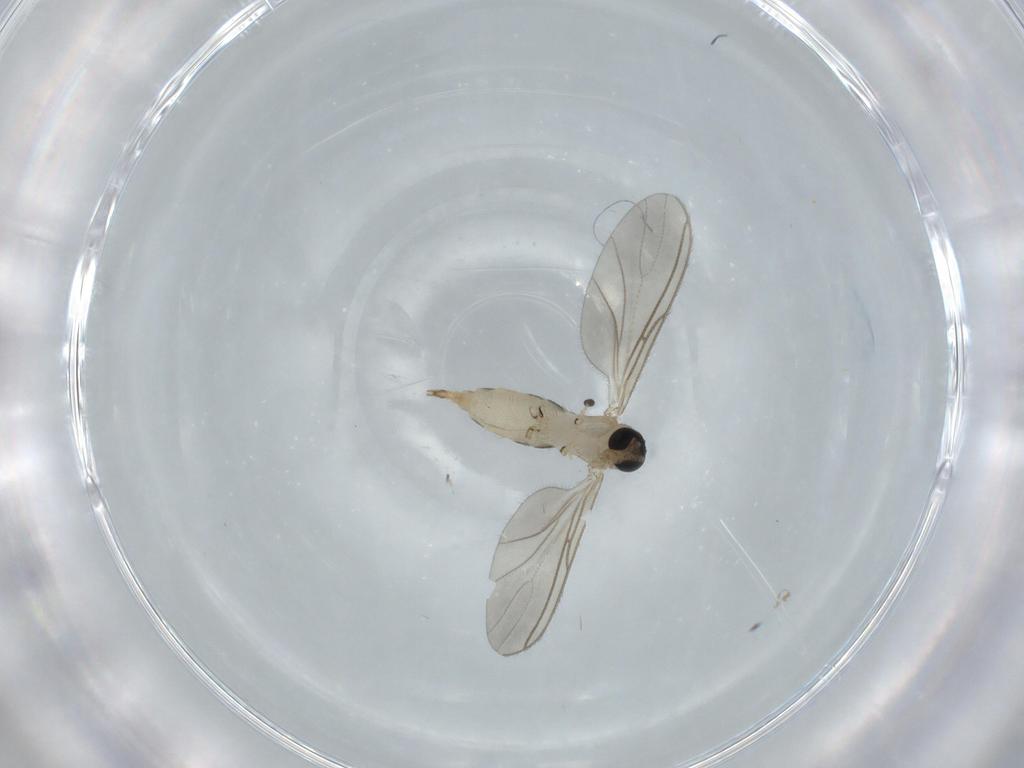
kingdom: Animalia
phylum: Arthropoda
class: Insecta
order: Diptera
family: Sciaridae
